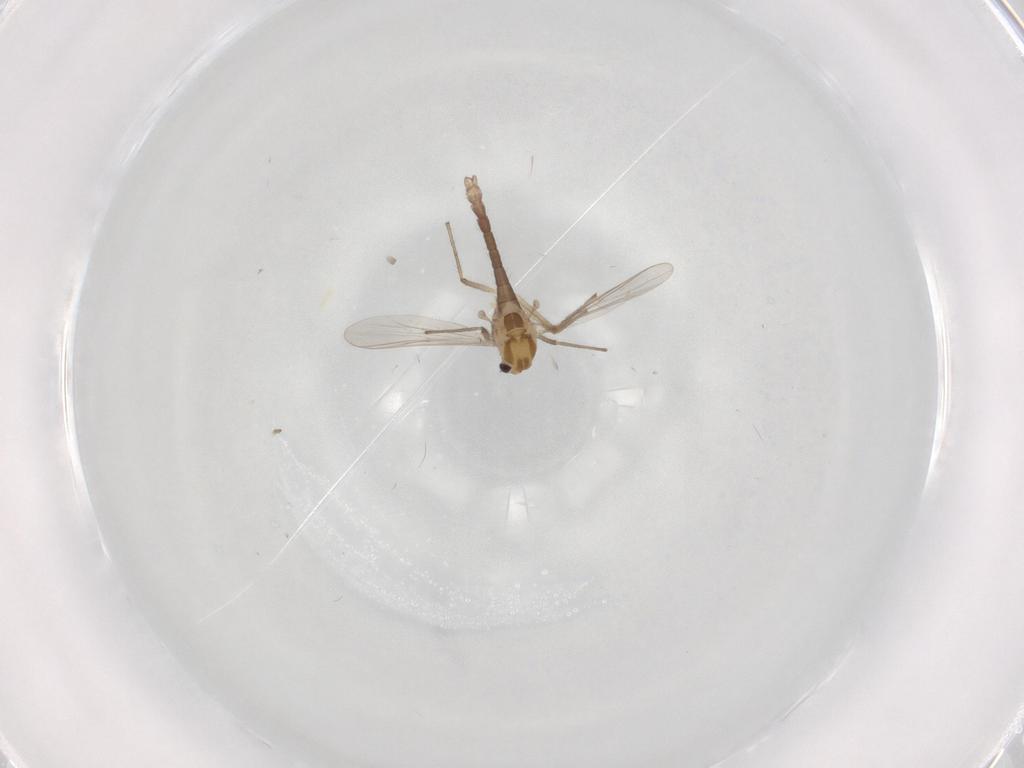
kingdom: Animalia
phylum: Arthropoda
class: Insecta
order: Diptera
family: Chironomidae
